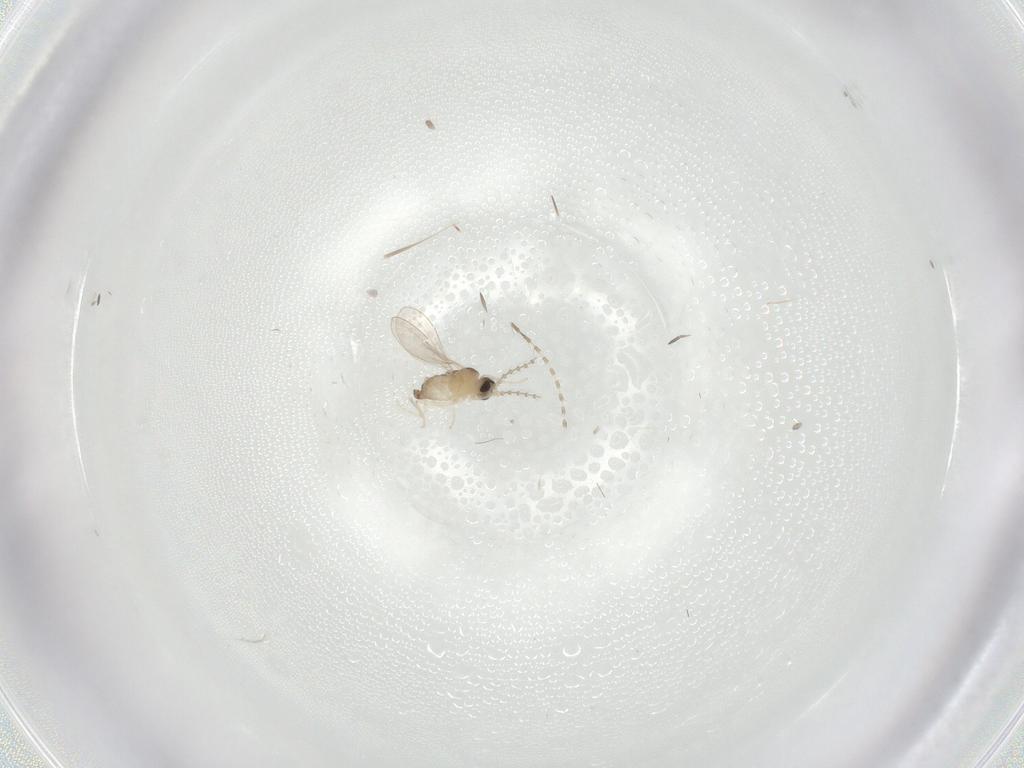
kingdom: Animalia
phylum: Arthropoda
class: Insecta
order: Diptera
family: Cecidomyiidae
